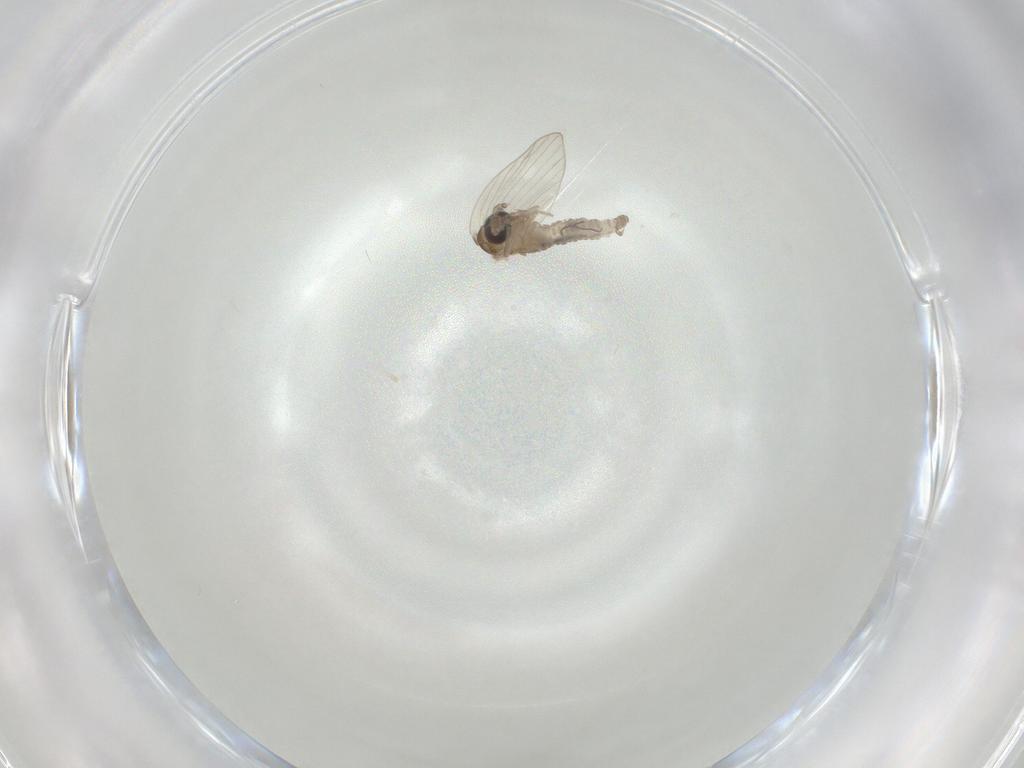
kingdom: Animalia
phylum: Arthropoda
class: Insecta
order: Diptera
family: Psychodidae
